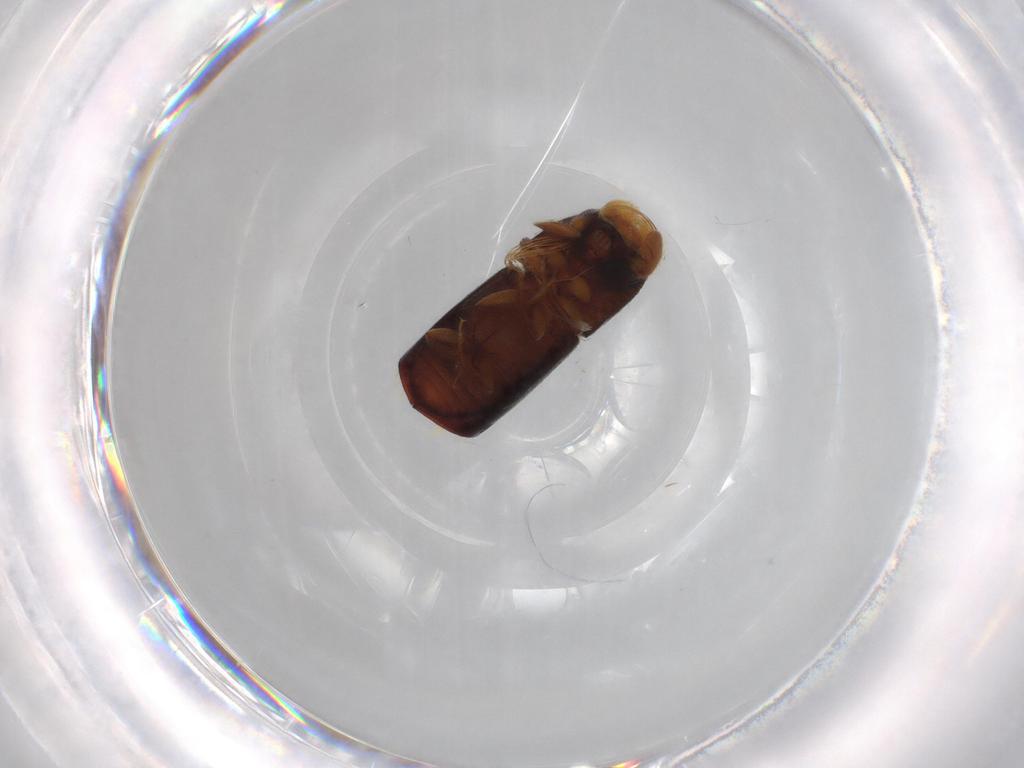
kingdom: Animalia
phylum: Arthropoda
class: Insecta
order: Coleoptera
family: Curculionidae
